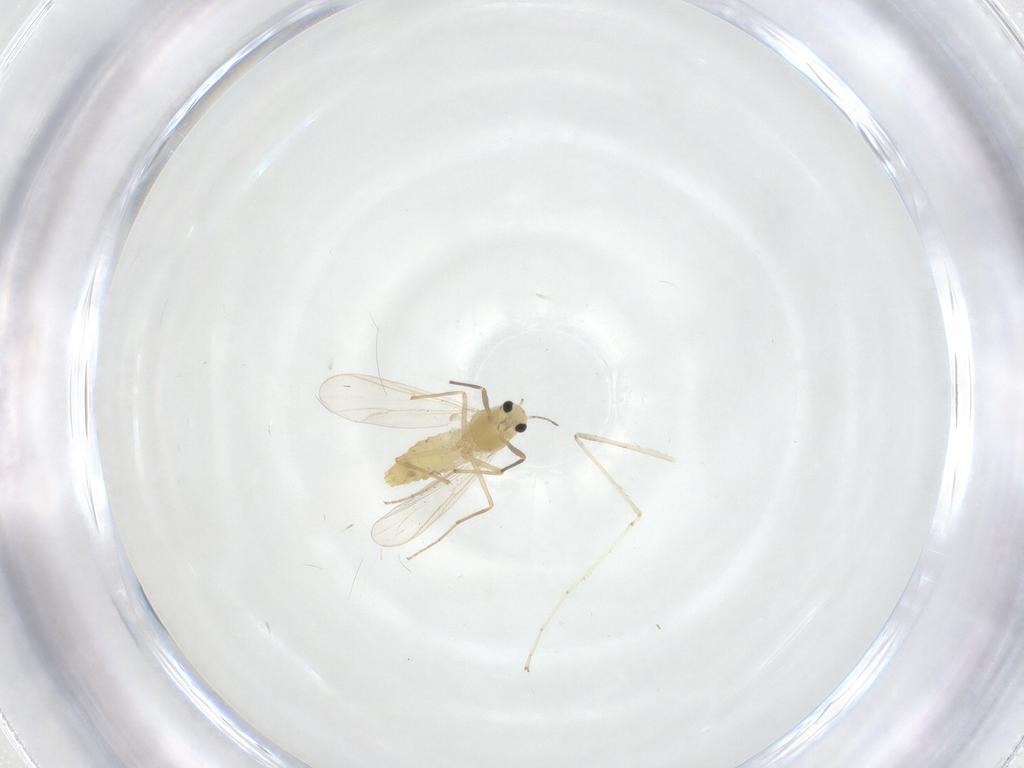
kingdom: Animalia
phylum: Arthropoda
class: Insecta
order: Diptera
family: Chironomidae
